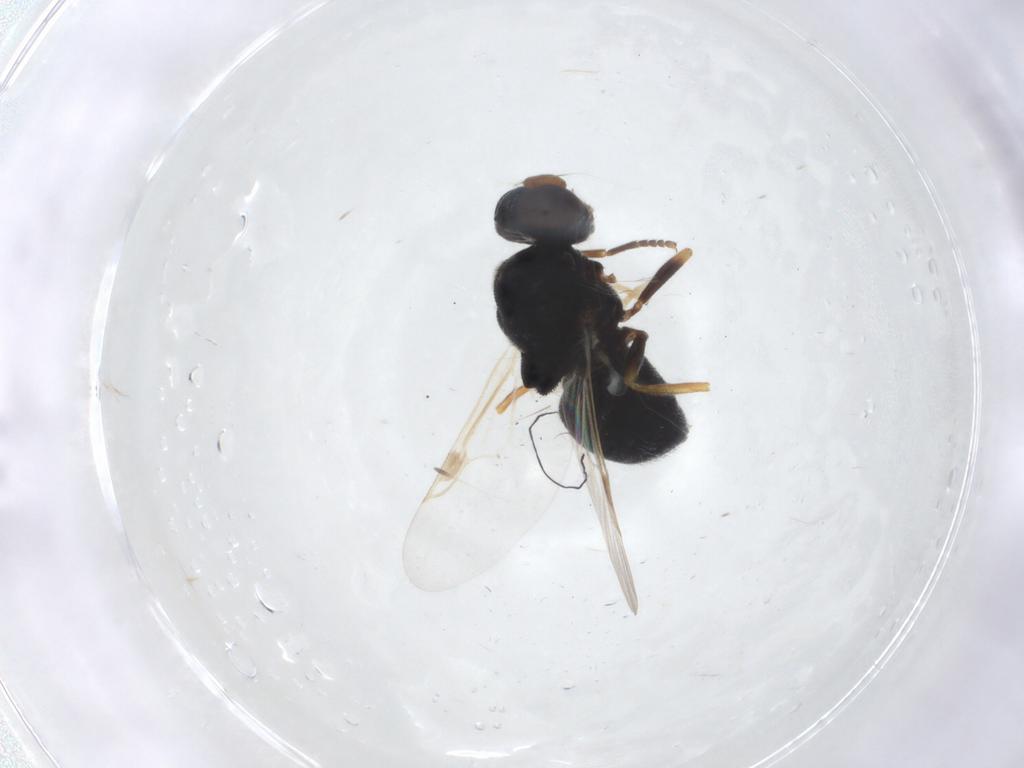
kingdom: Animalia
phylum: Arthropoda
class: Insecta
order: Diptera
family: Stratiomyidae
